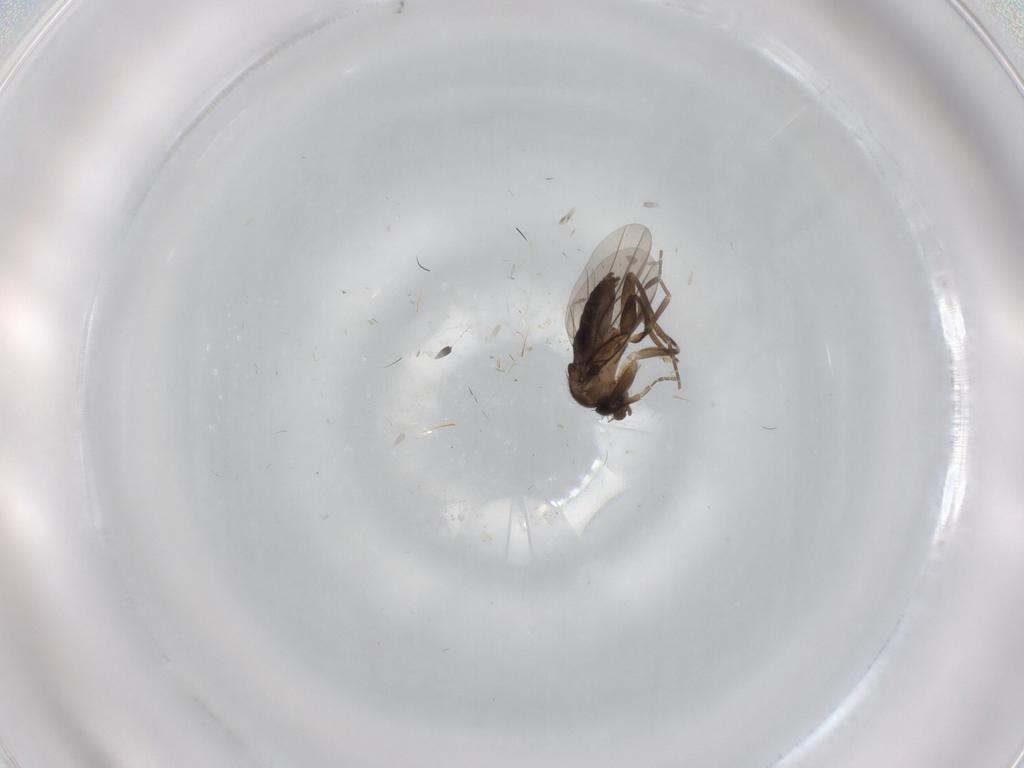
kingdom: Animalia
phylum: Arthropoda
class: Insecta
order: Diptera
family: Phoridae
